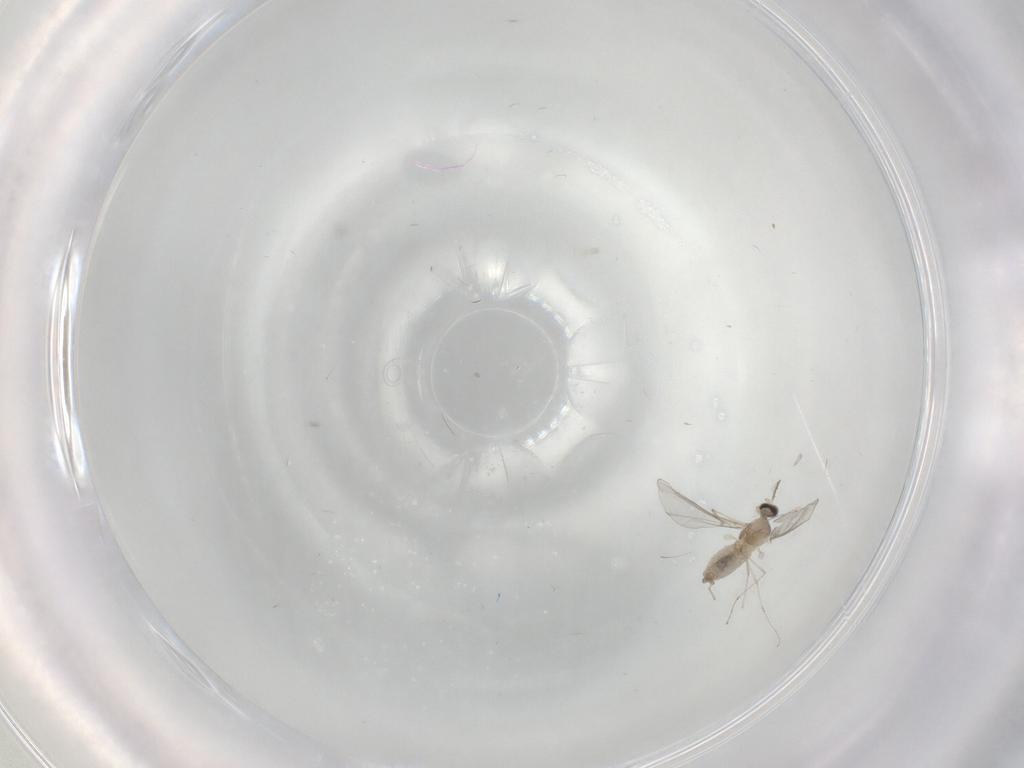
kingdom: Animalia
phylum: Arthropoda
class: Insecta
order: Diptera
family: Cecidomyiidae
